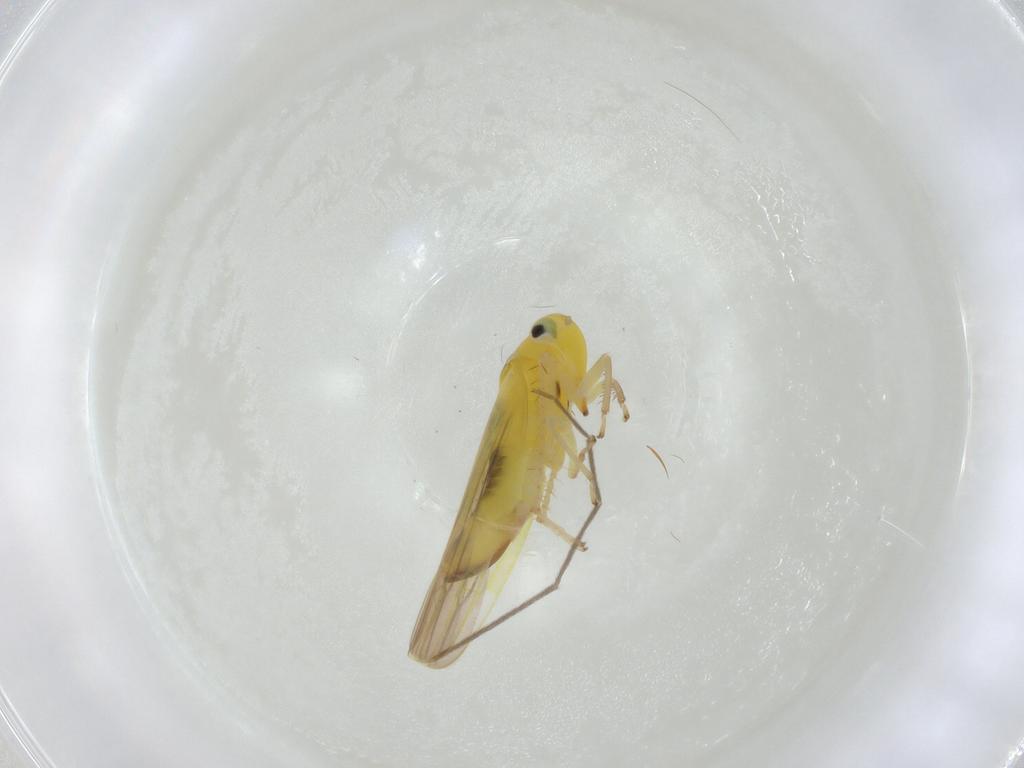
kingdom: Animalia
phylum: Arthropoda
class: Insecta
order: Hemiptera
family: Cicadellidae
